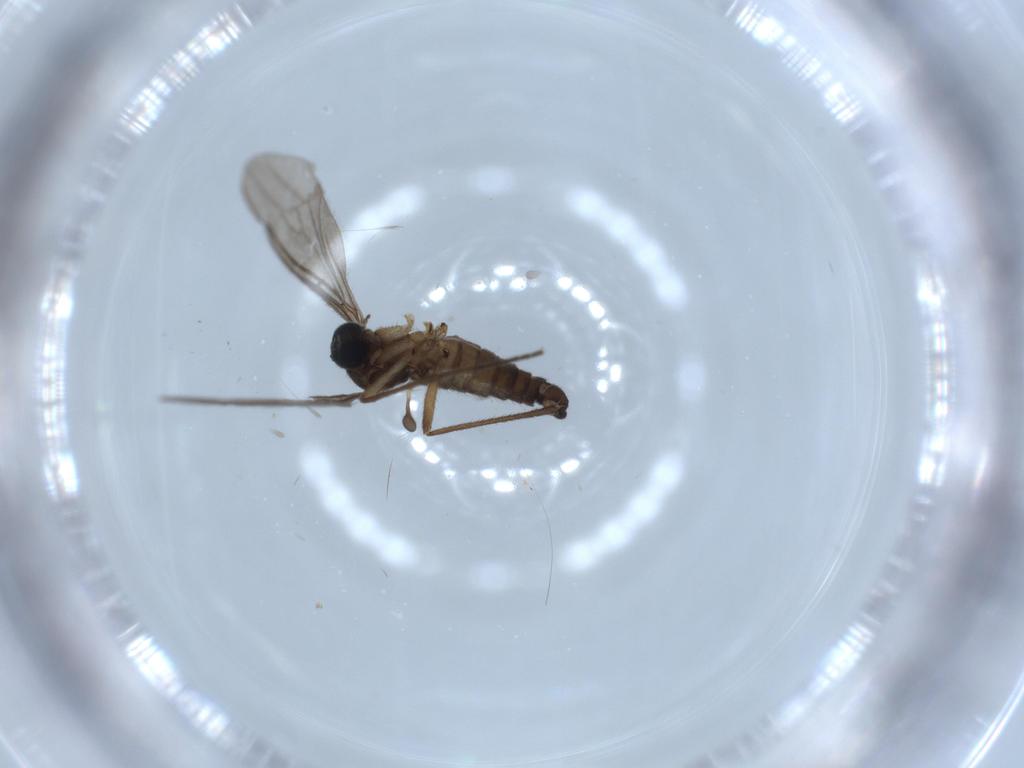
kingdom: Animalia
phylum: Arthropoda
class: Insecta
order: Diptera
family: Sciaridae
